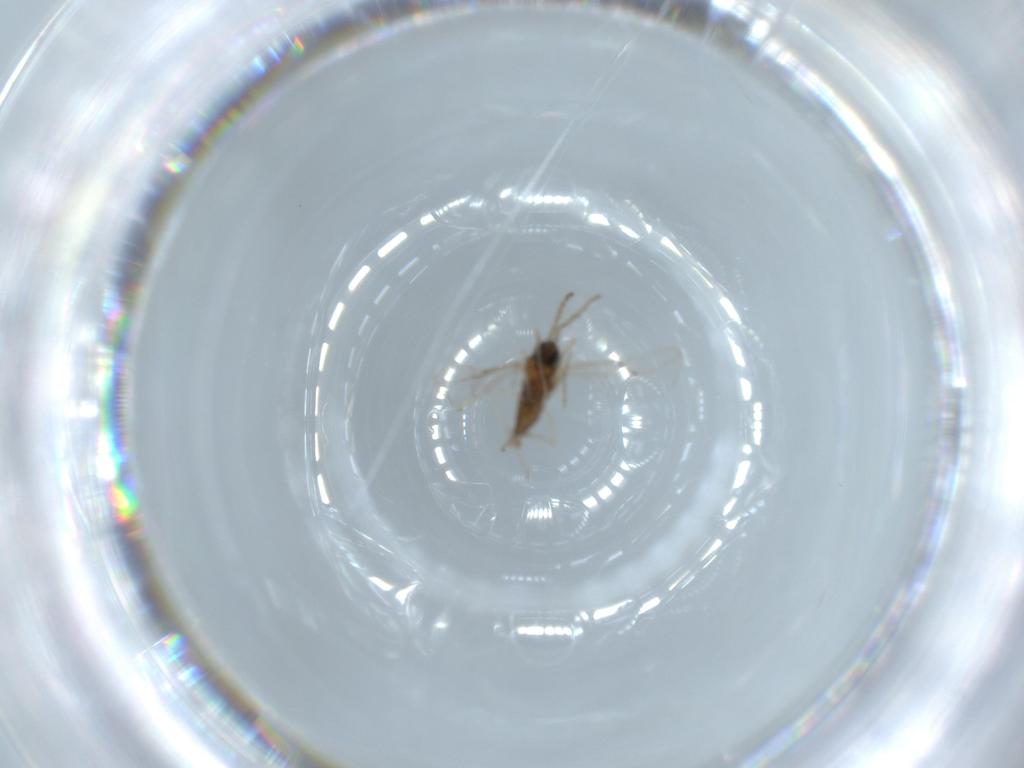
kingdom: Animalia
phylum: Arthropoda
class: Insecta
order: Diptera
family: Cecidomyiidae
